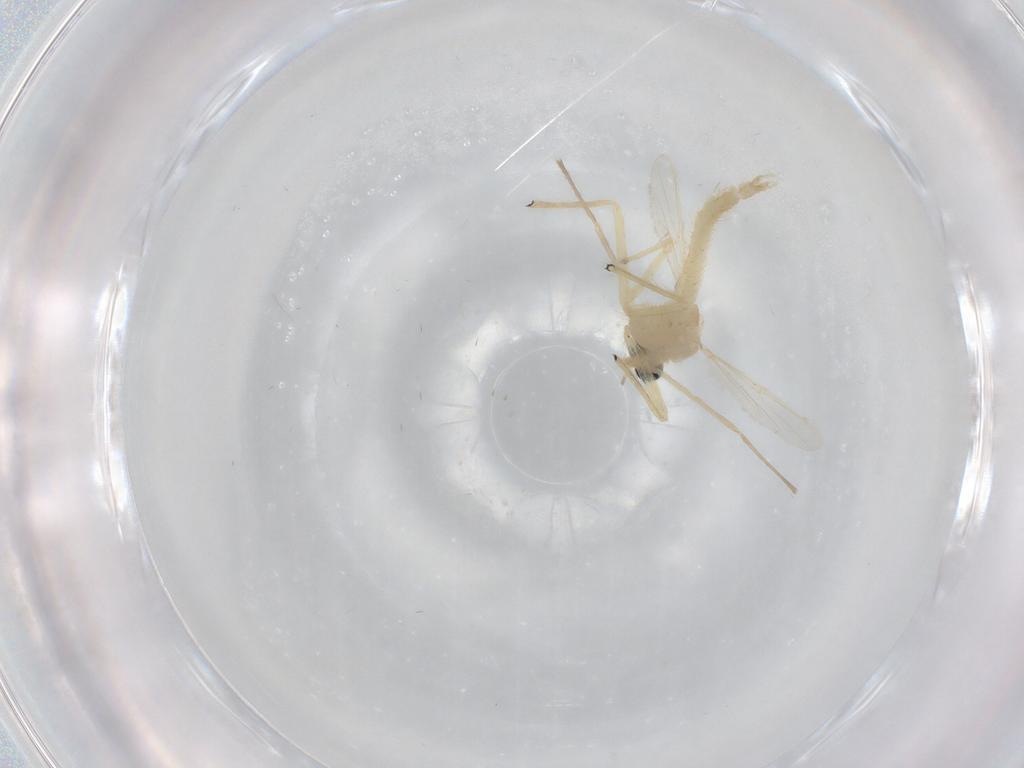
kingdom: Animalia
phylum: Arthropoda
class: Insecta
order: Diptera
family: Chironomidae
